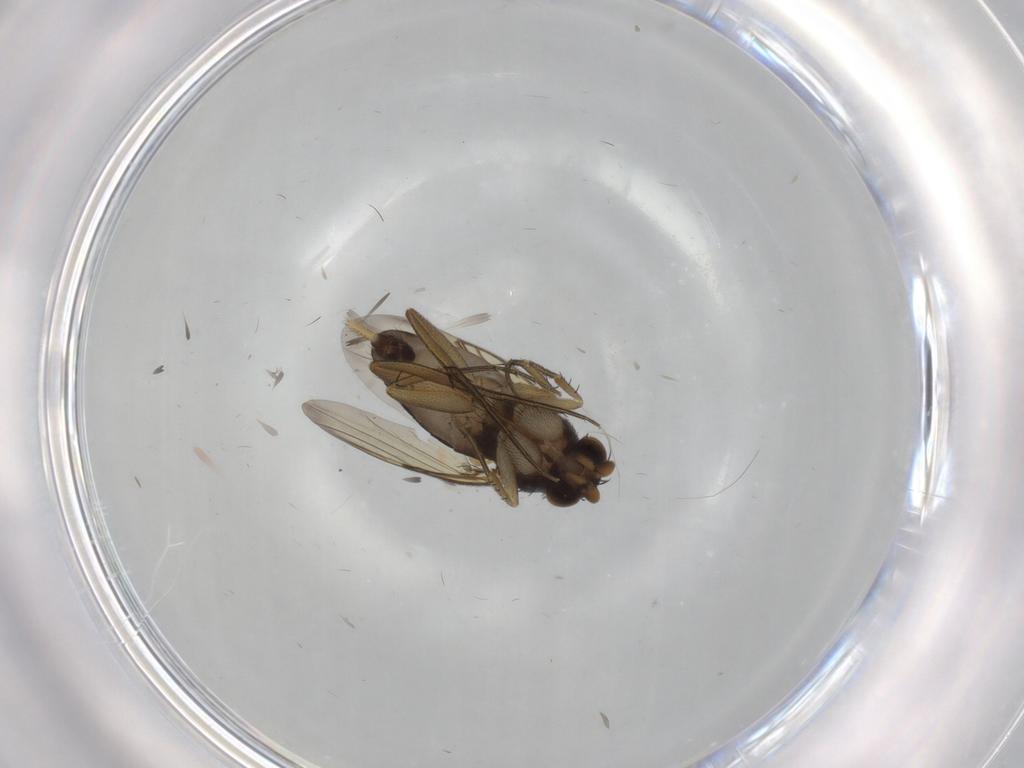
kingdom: Animalia
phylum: Arthropoda
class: Insecta
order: Diptera
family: Phoridae
